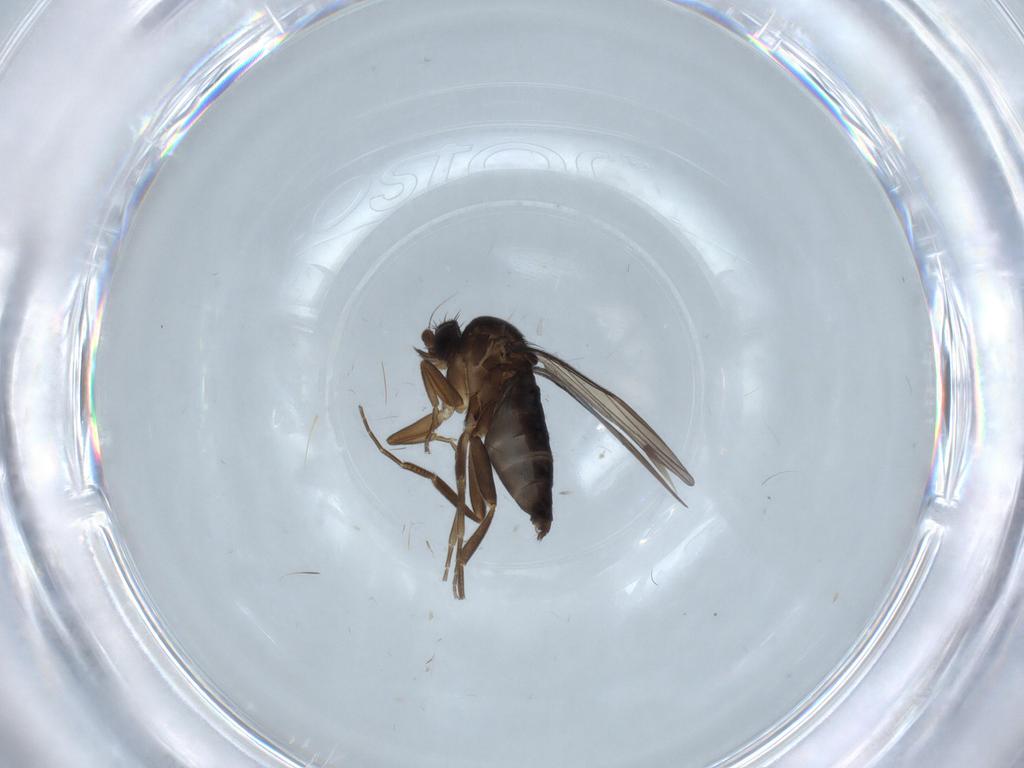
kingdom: Animalia
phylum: Arthropoda
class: Insecta
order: Diptera
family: Phoridae
